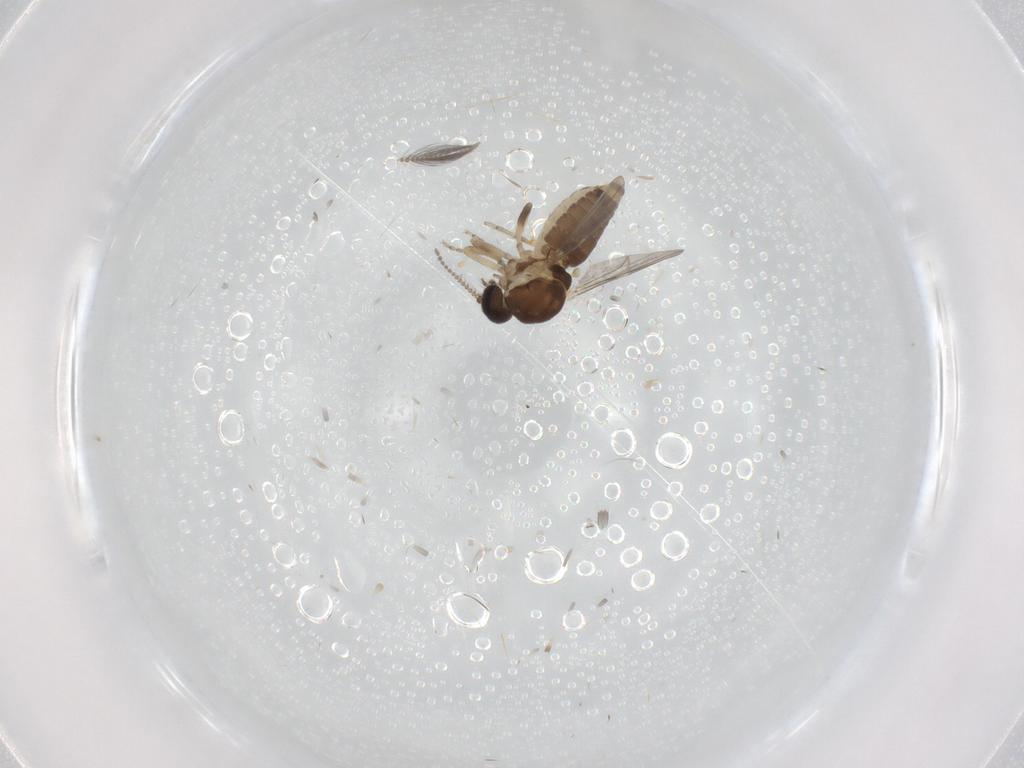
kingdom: Animalia
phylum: Arthropoda
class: Insecta
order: Diptera
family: Ceratopogonidae
